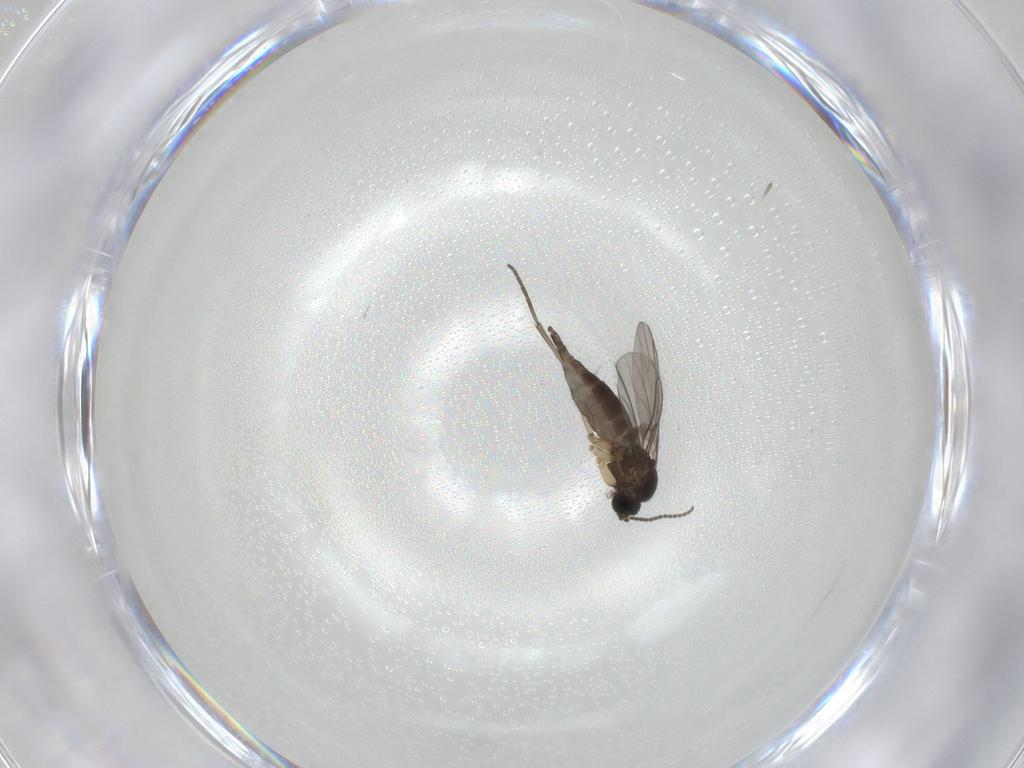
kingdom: Animalia
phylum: Arthropoda
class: Insecta
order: Diptera
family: Sciaridae
